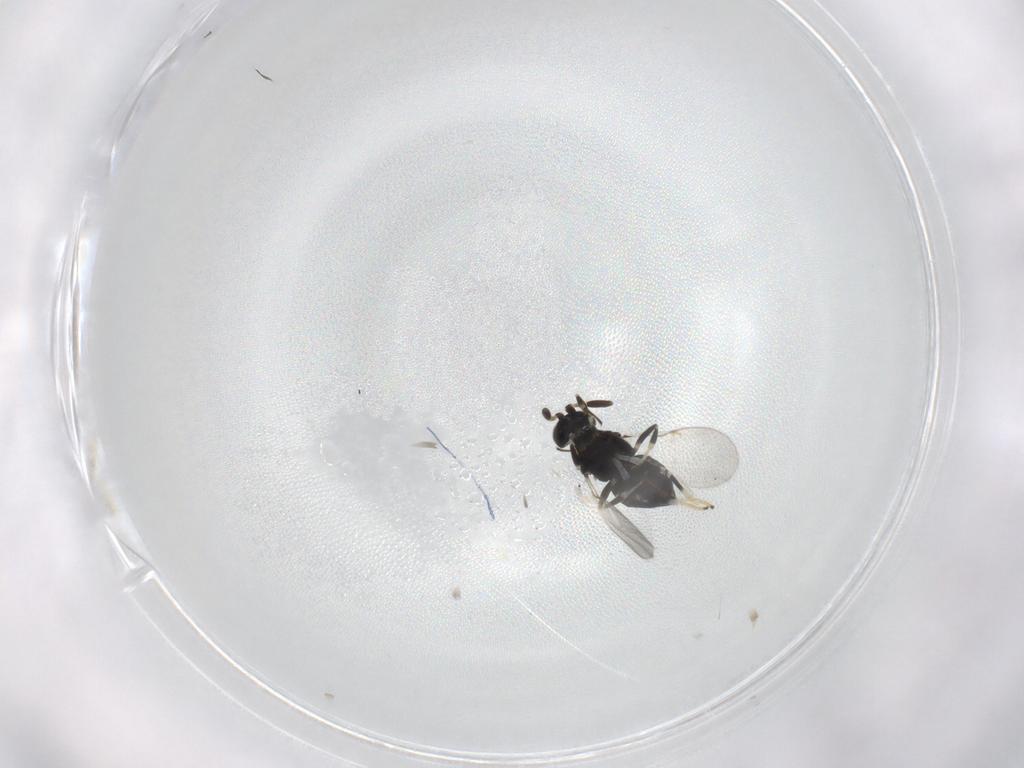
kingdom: Animalia
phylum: Arthropoda
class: Insecta
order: Hymenoptera
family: Encyrtidae
